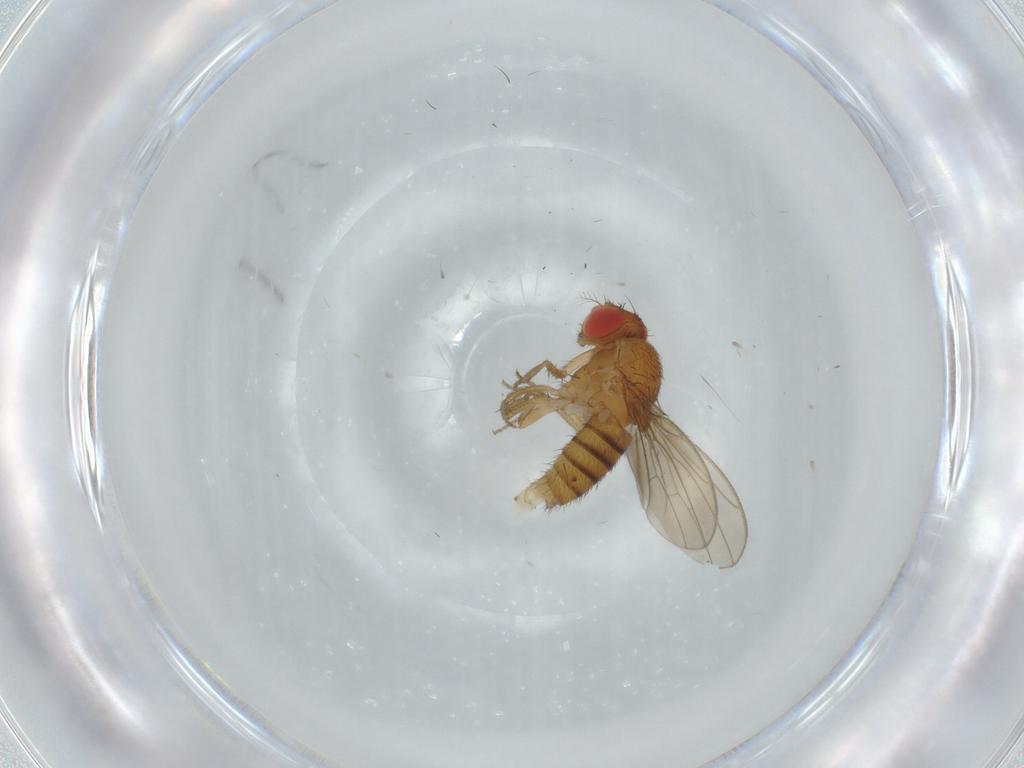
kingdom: Animalia
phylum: Arthropoda
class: Insecta
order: Diptera
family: Drosophilidae
